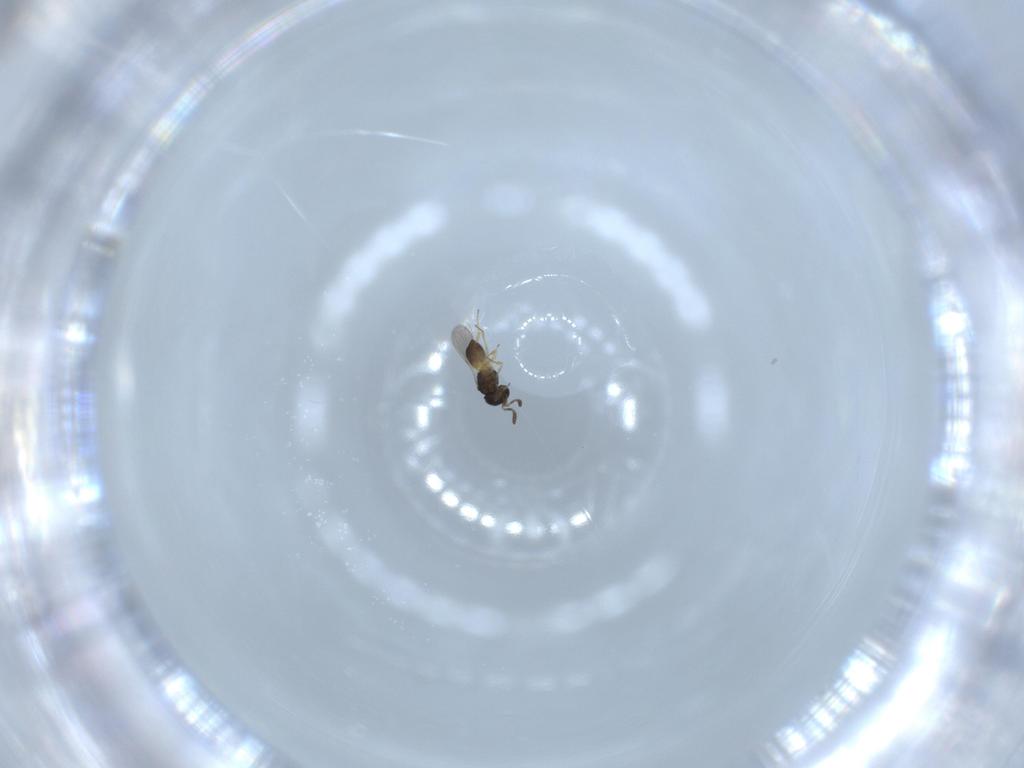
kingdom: Animalia
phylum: Arthropoda
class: Insecta
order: Hymenoptera
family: Scelionidae
